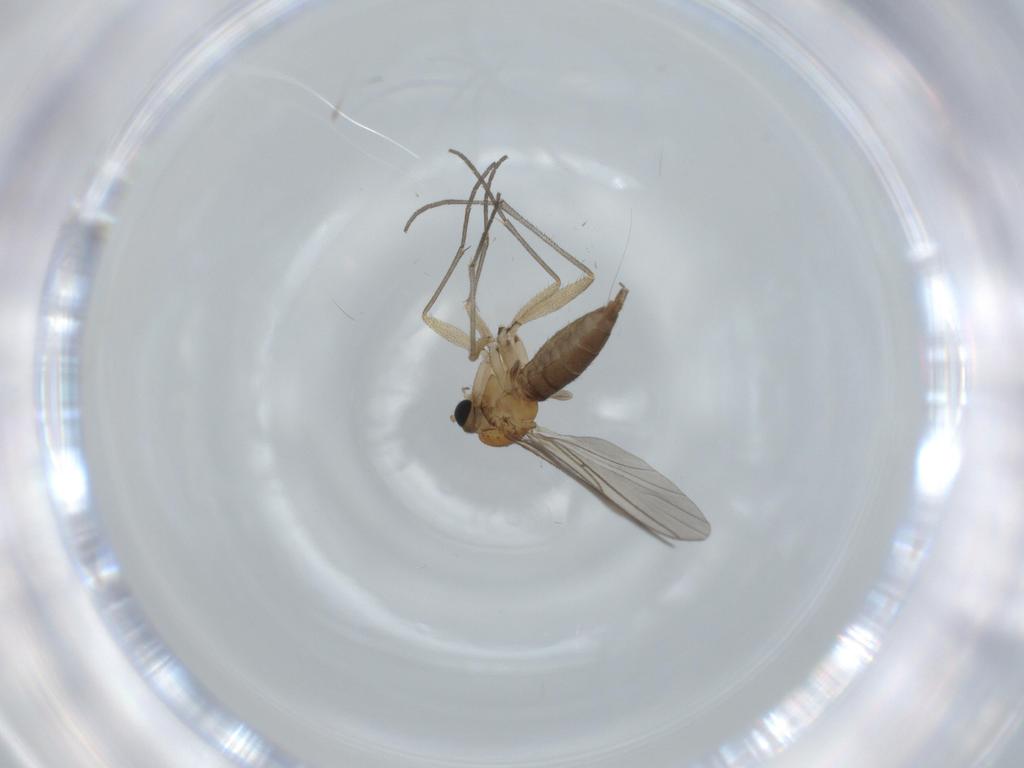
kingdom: Animalia
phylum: Arthropoda
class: Insecta
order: Diptera
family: Sciaridae
